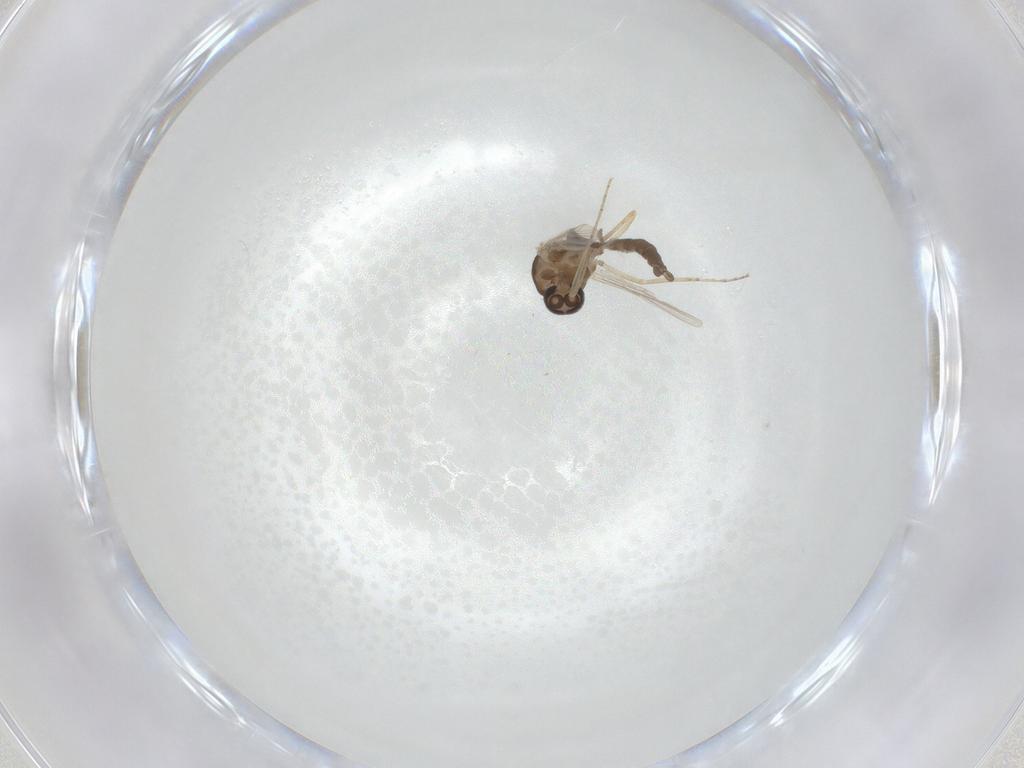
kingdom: Animalia
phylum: Arthropoda
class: Insecta
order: Diptera
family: Ceratopogonidae
